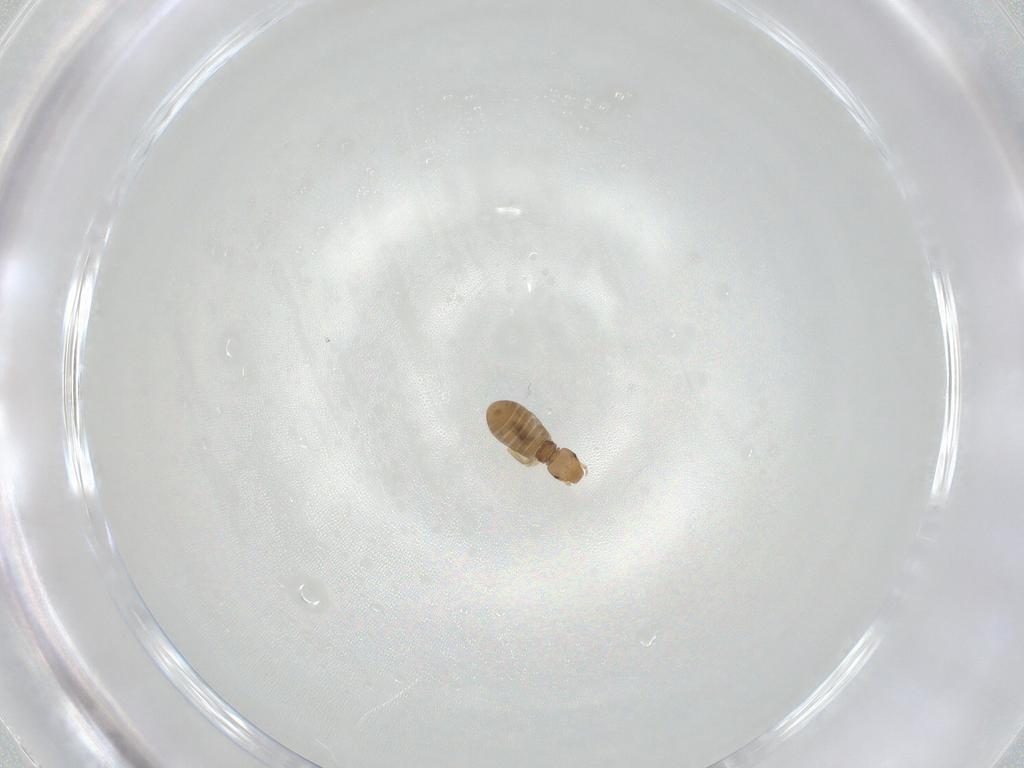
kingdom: Animalia
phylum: Arthropoda
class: Insecta
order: Psocodea
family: Liposcelididae
